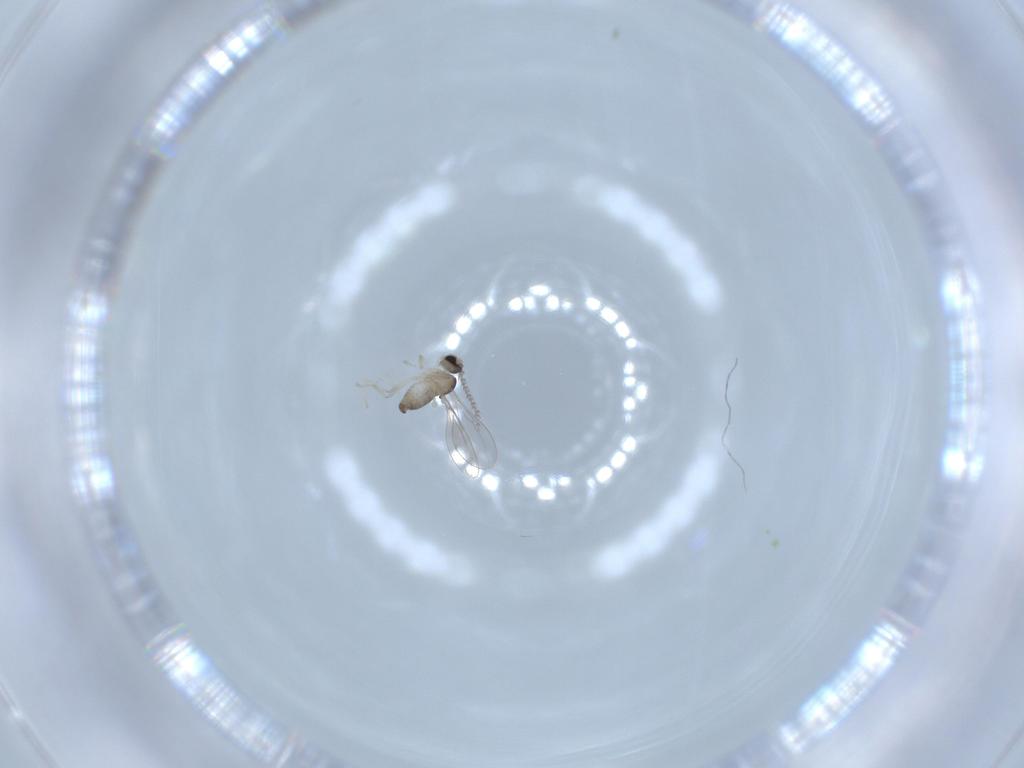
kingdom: Animalia
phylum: Arthropoda
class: Insecta
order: Diptera
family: Cecidomyiidae
